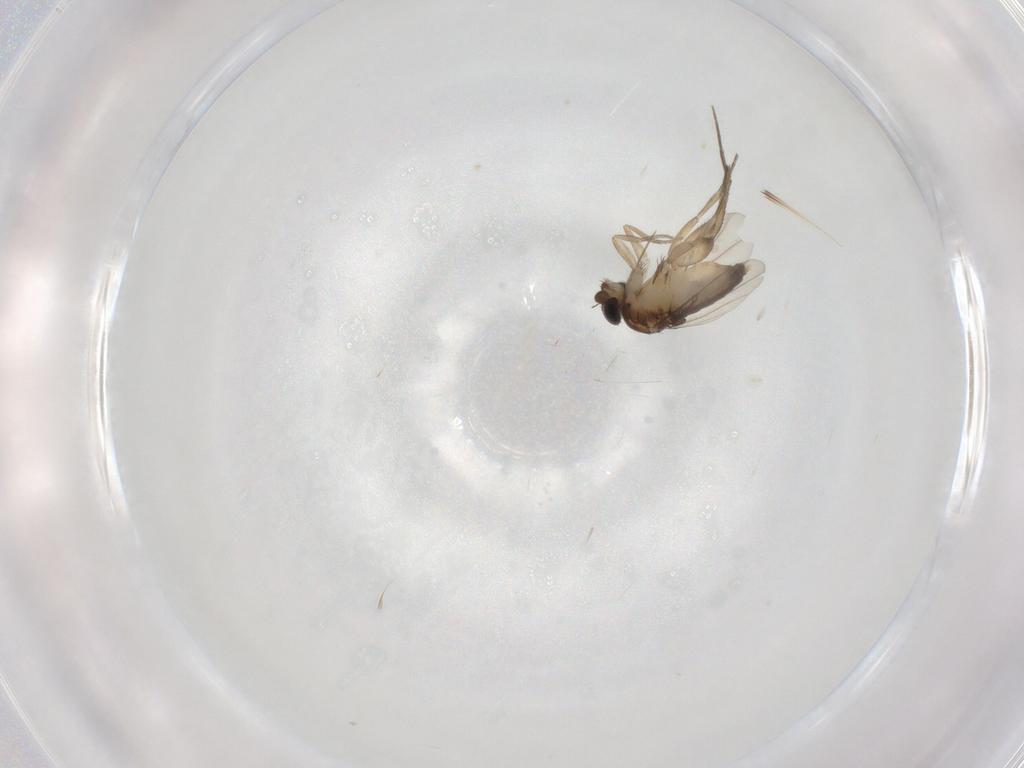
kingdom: Animalia
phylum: Arthropoda
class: Insecta
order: Diptera
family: Phoridae
